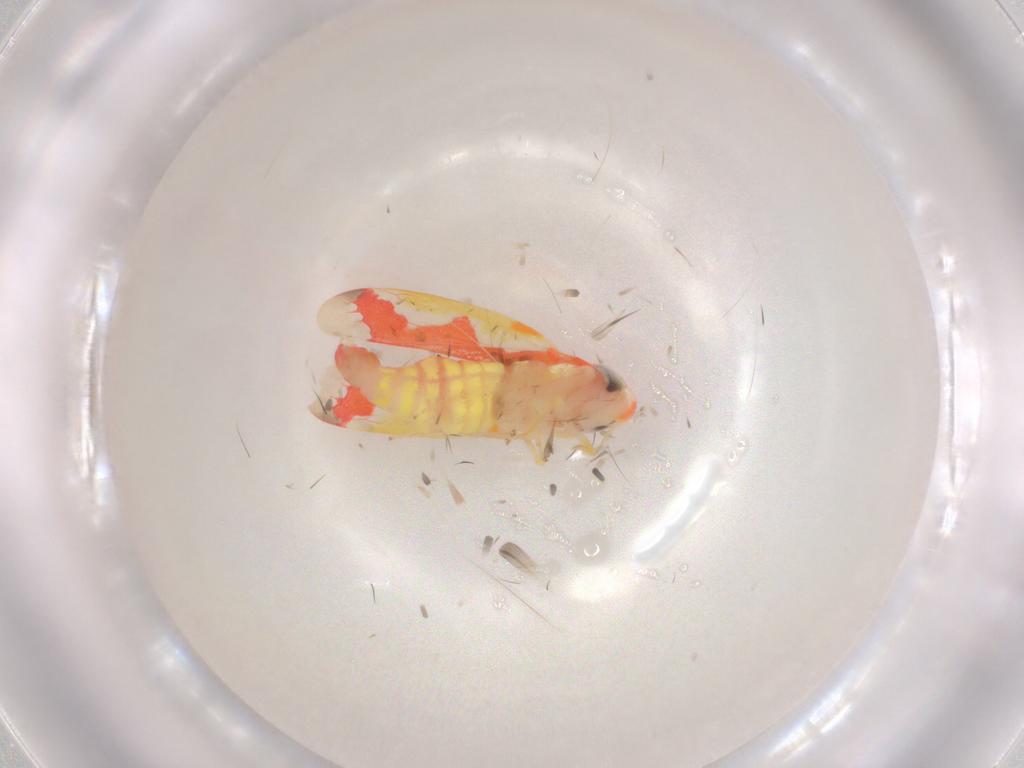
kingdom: Animalia
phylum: Arthropoda
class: Insecta
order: Hemiptera
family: Cicadellidae
